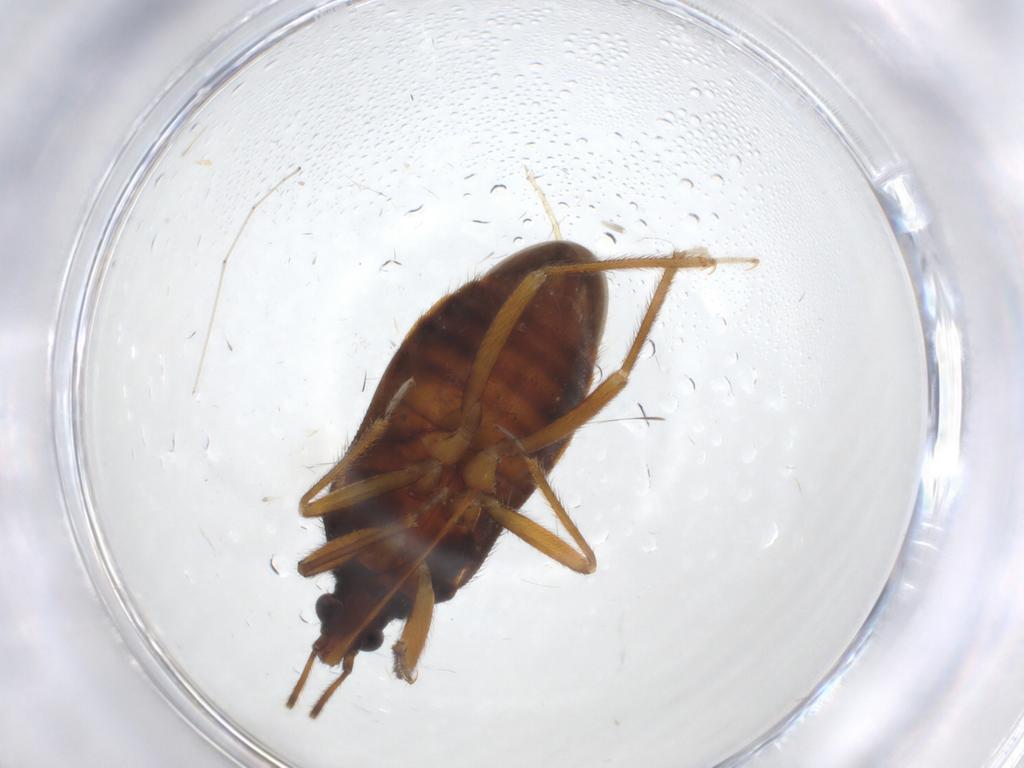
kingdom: Animalia
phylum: Arthropoda
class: Insecta
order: Hemiptera
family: Anthocoridae
